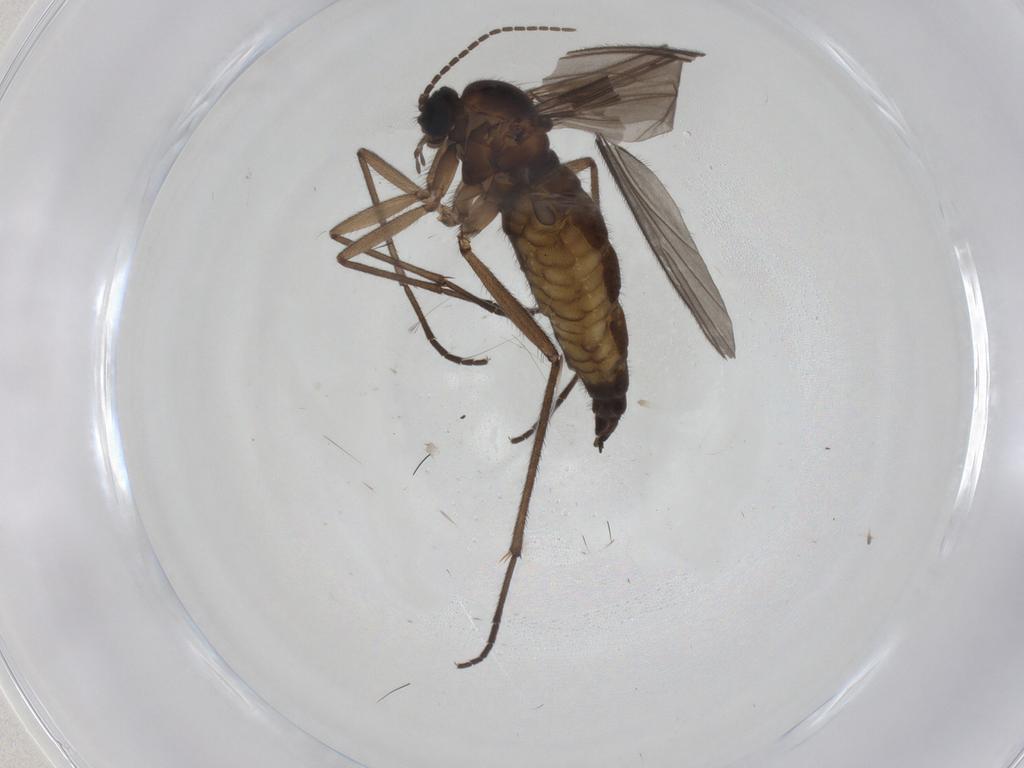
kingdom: Animalia
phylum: Arthropoda
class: Insecta
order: Diptera
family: Sciaridae
